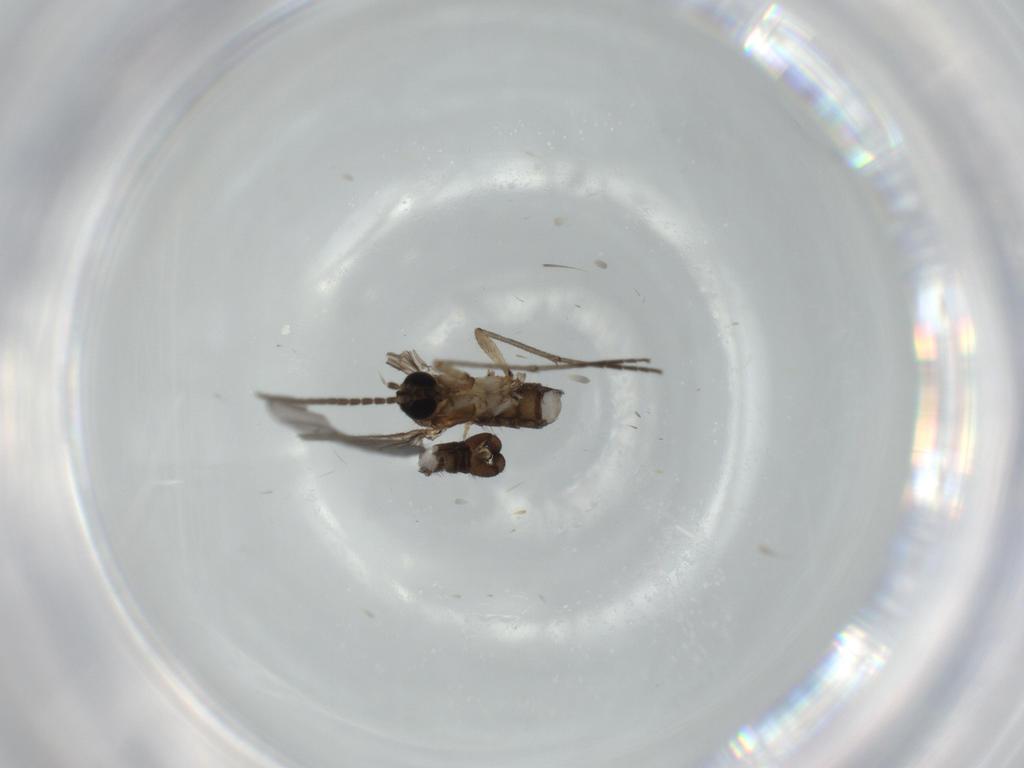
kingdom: Animalia
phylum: Arthropoda
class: Insecta
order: Diptera
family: Sciaridae
